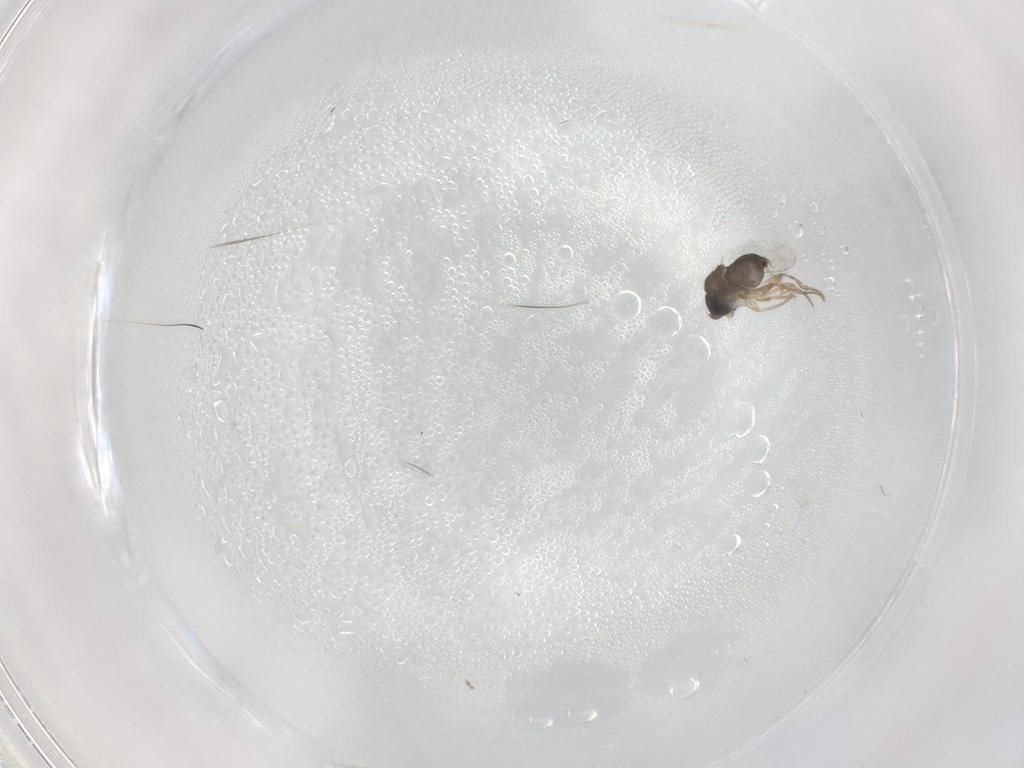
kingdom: Animalia
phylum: Arthropoda
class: Insecta
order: Diptera
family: Phoridae
